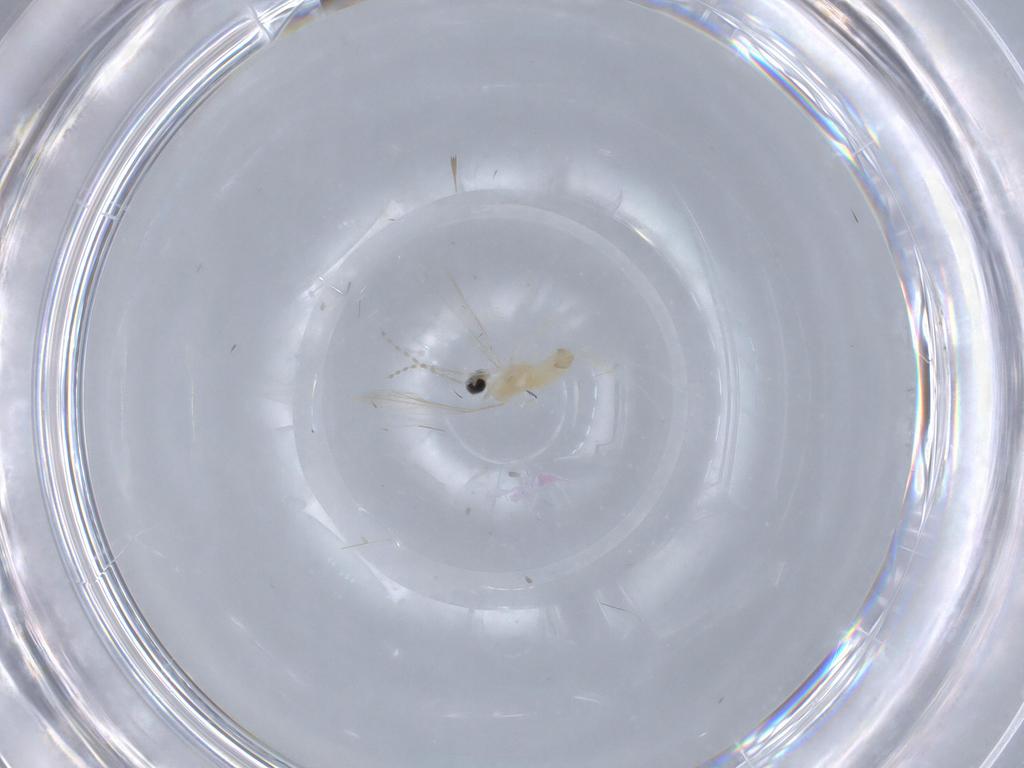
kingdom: Animalia
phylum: Arthropoda
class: Insecta
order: Diptera
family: Cecidomyiidae
